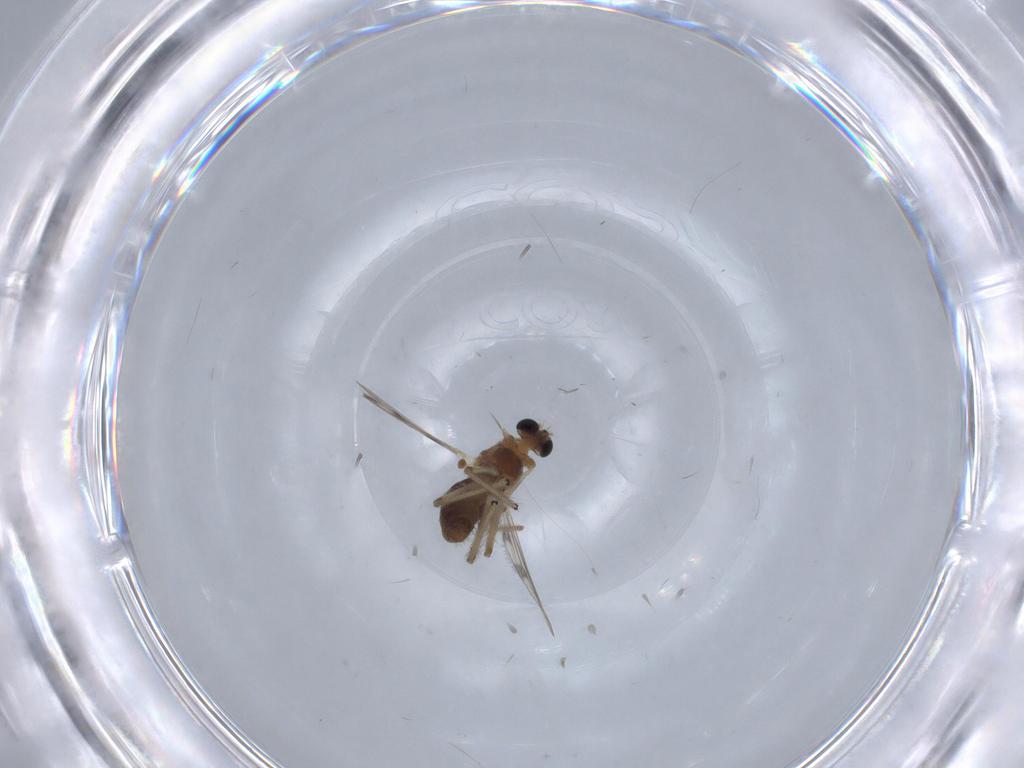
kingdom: Animalia
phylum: Arthropoda
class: Insecta
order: Diptera
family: Chironomidae
